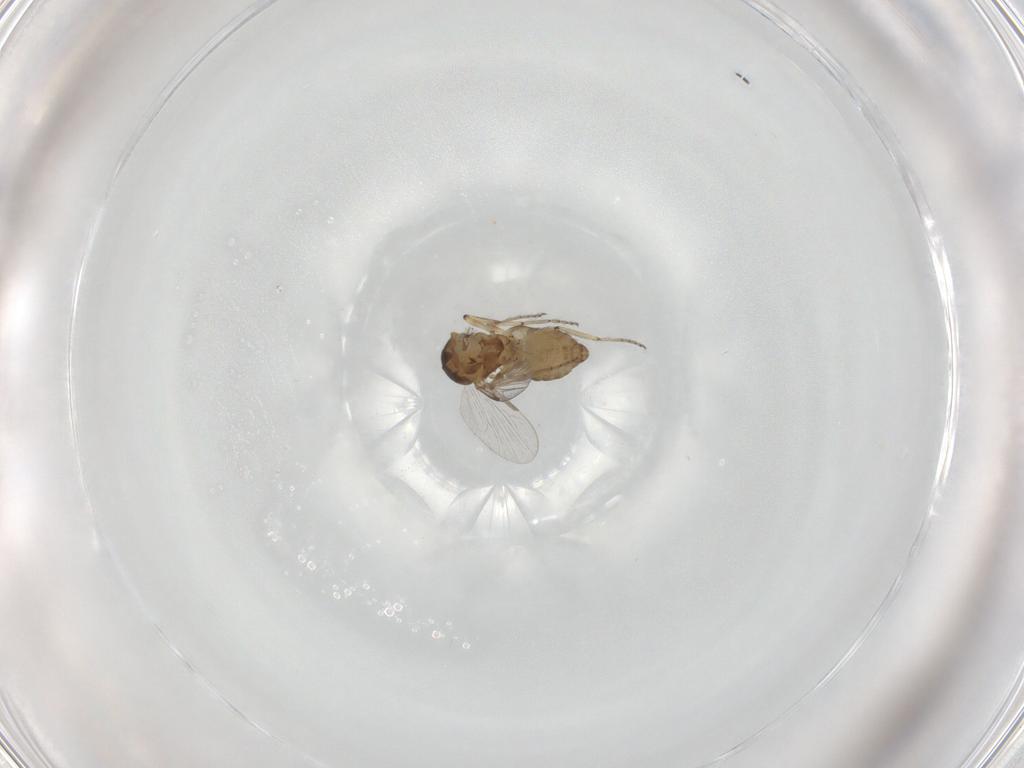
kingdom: Animalia
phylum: Arthropoda
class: Insecta
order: Diptera
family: Ceratopogonidae
